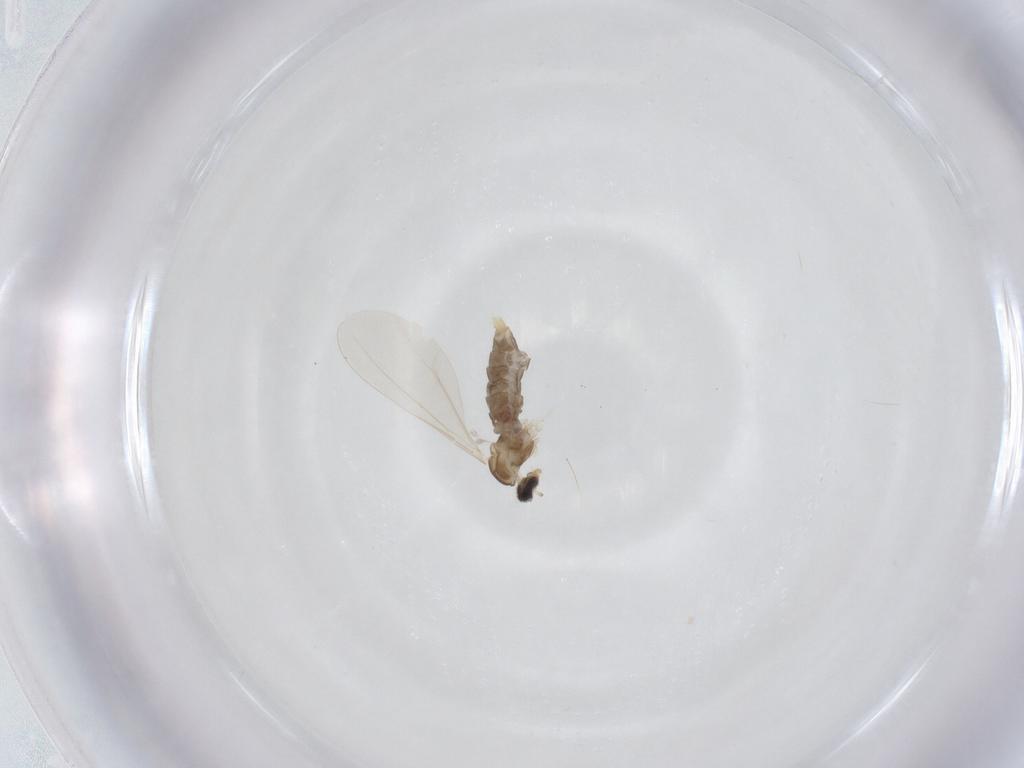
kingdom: Animalia
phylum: Arthropoda
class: Insecta
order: Diptera
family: Cecidomyiidae
